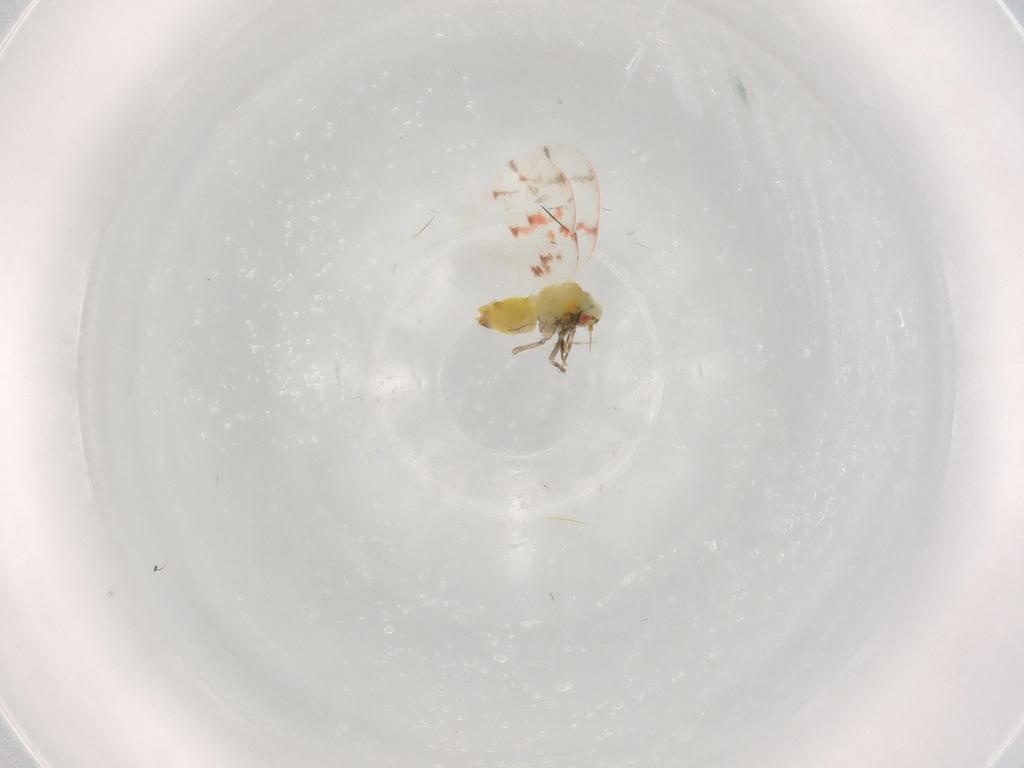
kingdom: Animalia
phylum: Arthropoda
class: Insecta
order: Hemiptera
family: Aleyrodidae
